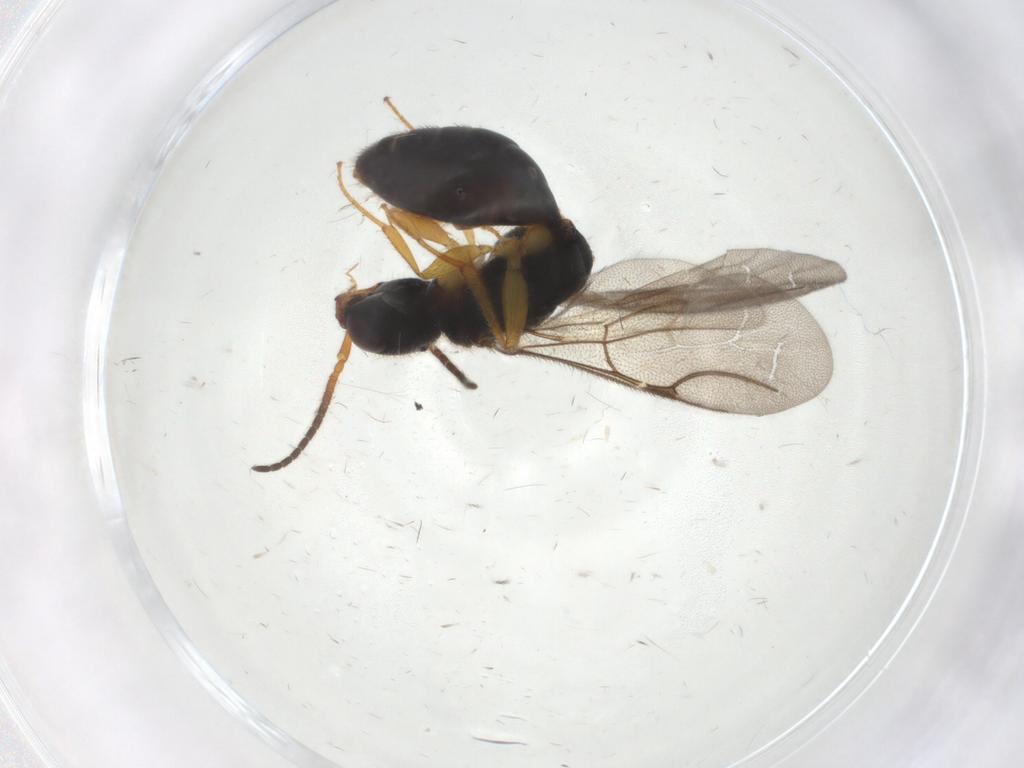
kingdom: Animalia
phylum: Arthropoda
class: Insecta
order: Hymenoptera
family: Bethylidae
